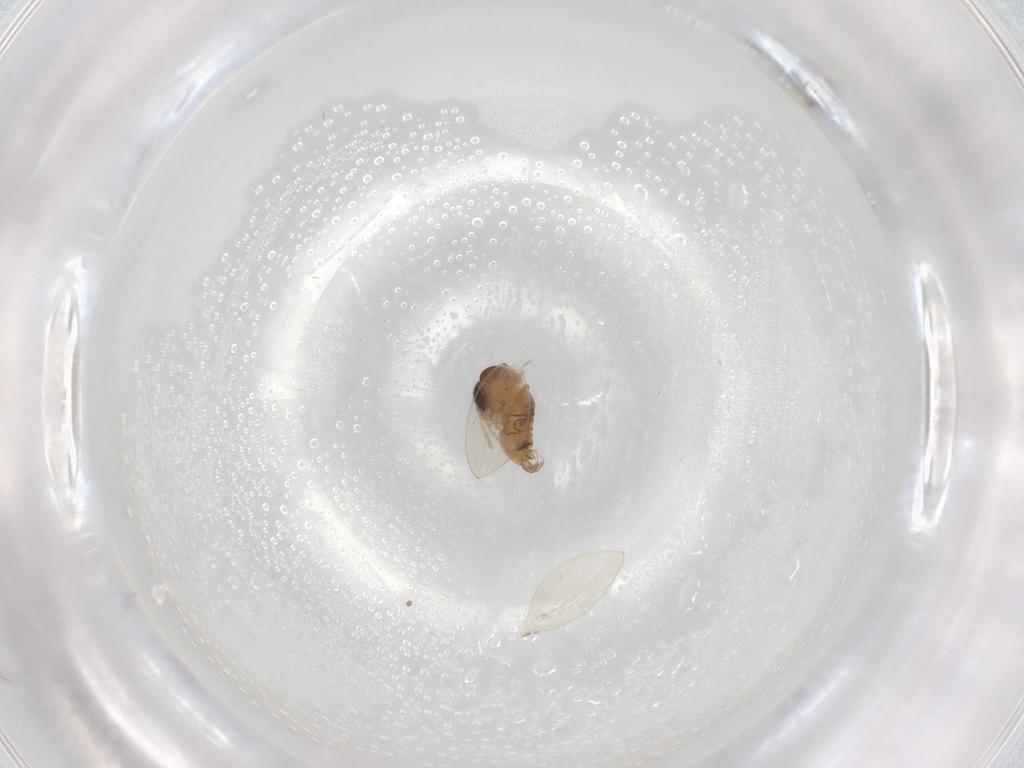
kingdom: Animalia
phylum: Arthropoda
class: Insecta
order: Diptera
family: Psychodidae
